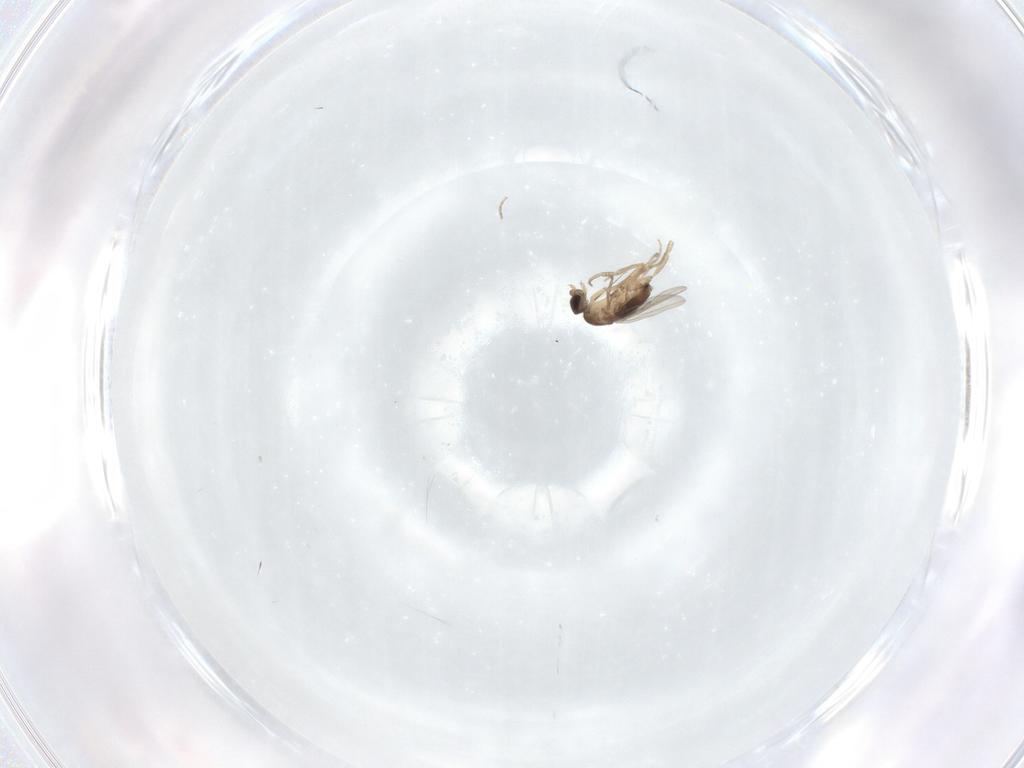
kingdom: Animalia
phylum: Arthropoda
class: Insecta
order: Diptera
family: Phoridae
